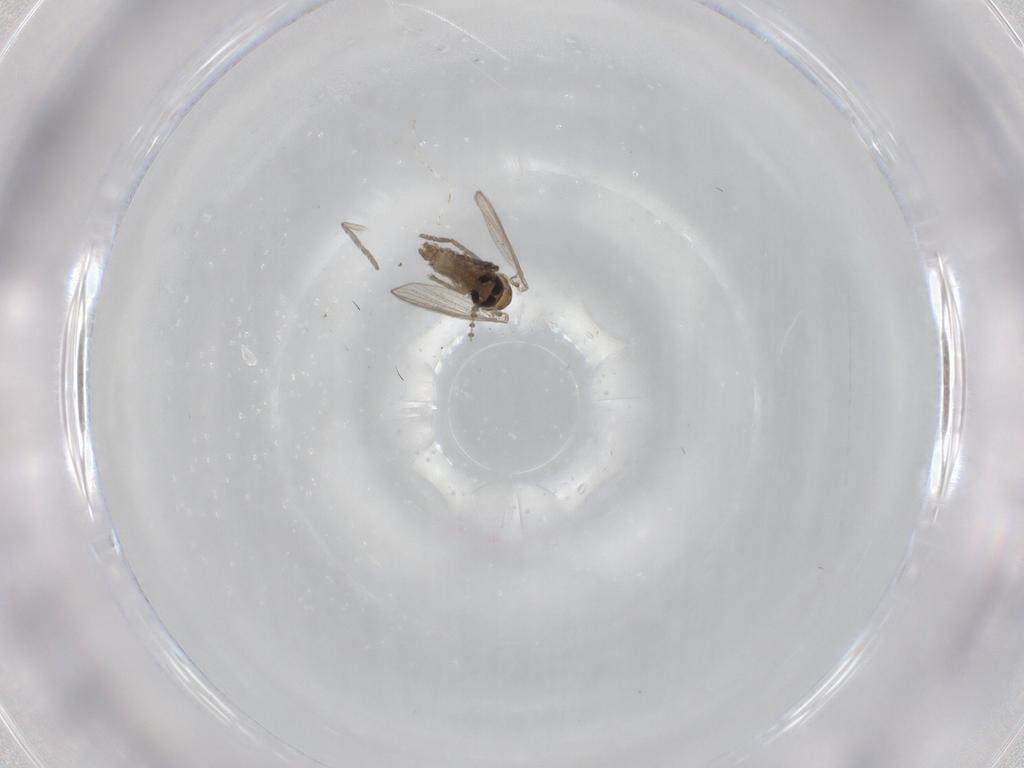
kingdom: Animalia
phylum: Arthropoda
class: Insecta
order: Diptera
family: Psychodidae
